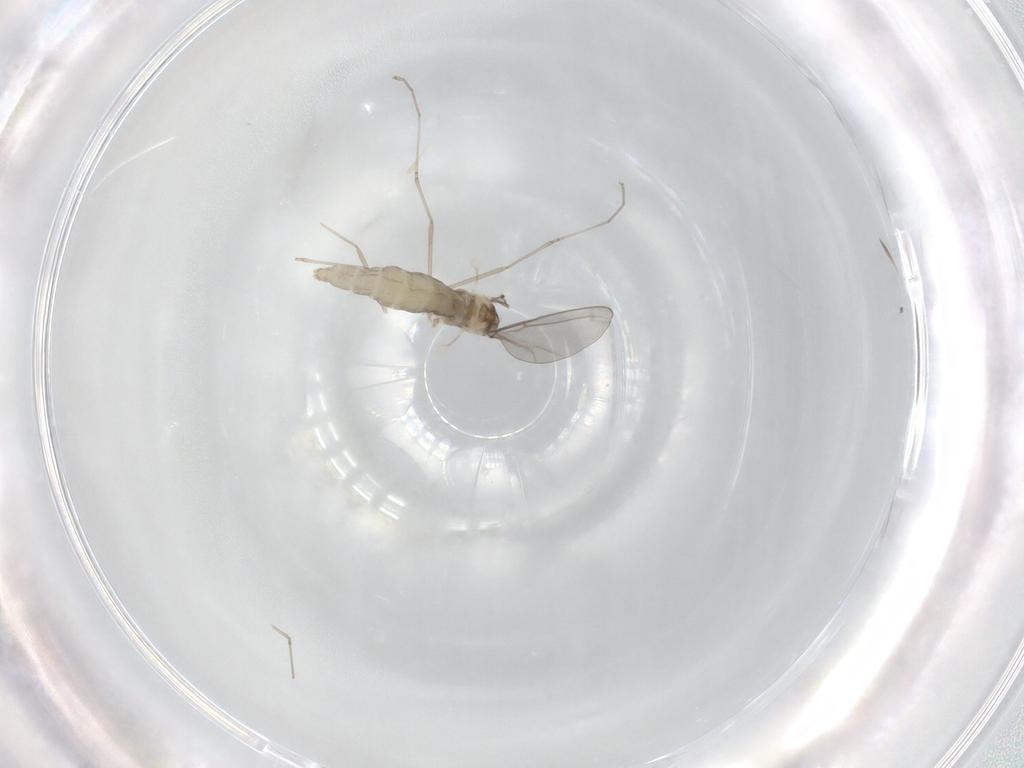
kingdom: Animalia
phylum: Arthropoda
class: Insecta
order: Diptera
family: Cecidomyiidae
